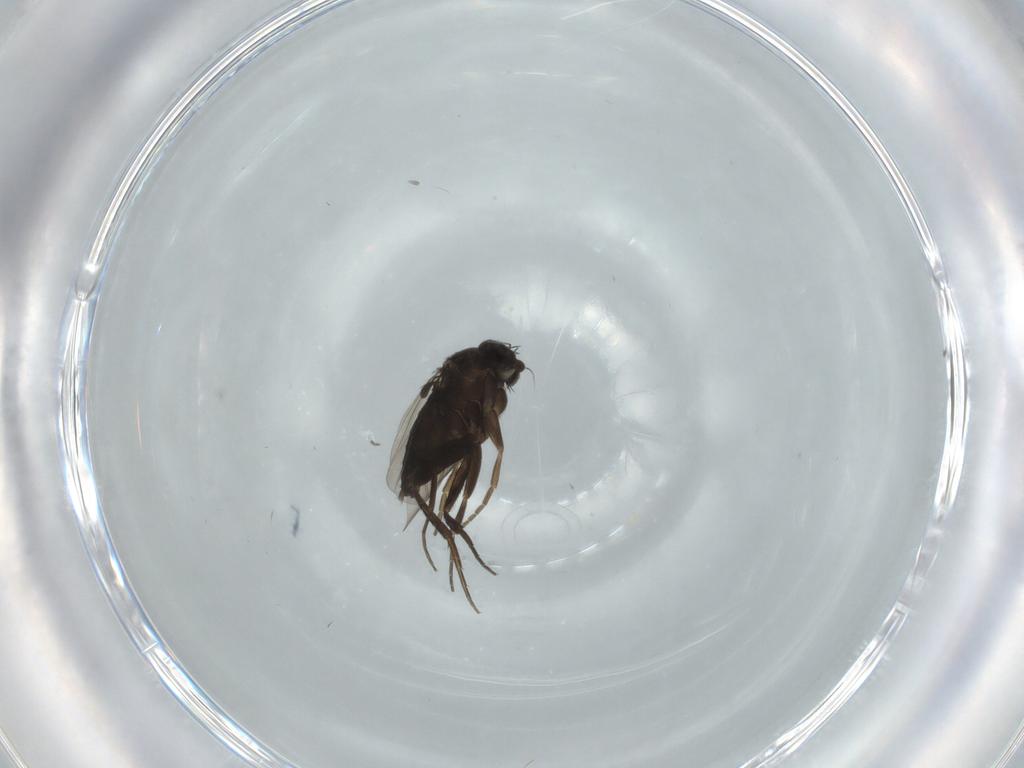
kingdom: Animalia
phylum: Arthropoda
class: Insecta
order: Diptera
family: Phoridae
